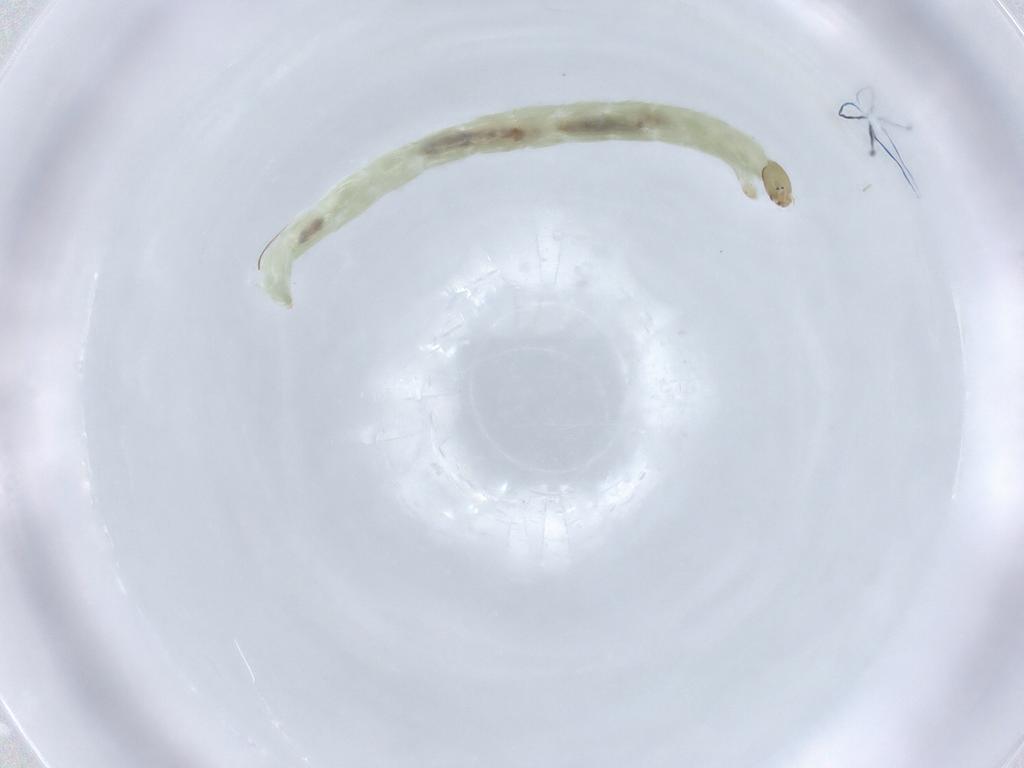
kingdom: Animalia
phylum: Arthropoda
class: Insecta
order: Diptera
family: Chironomidae
